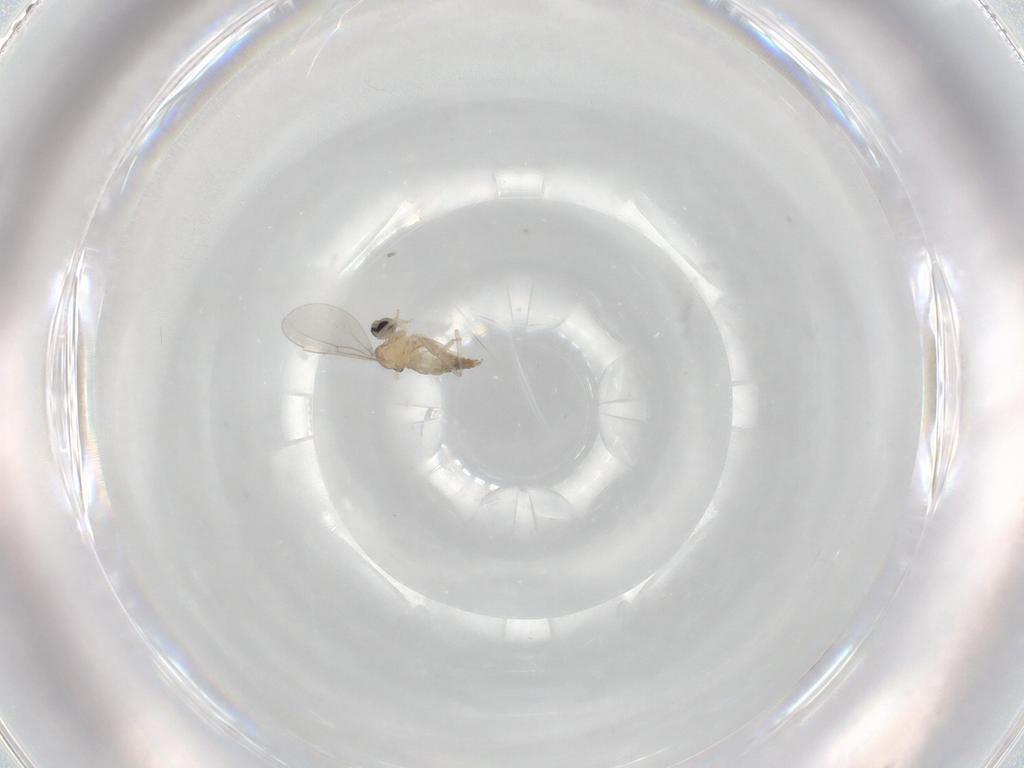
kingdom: Animalia
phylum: Arthropoda
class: Insecta
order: Diptera
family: Cecidomyiidae
